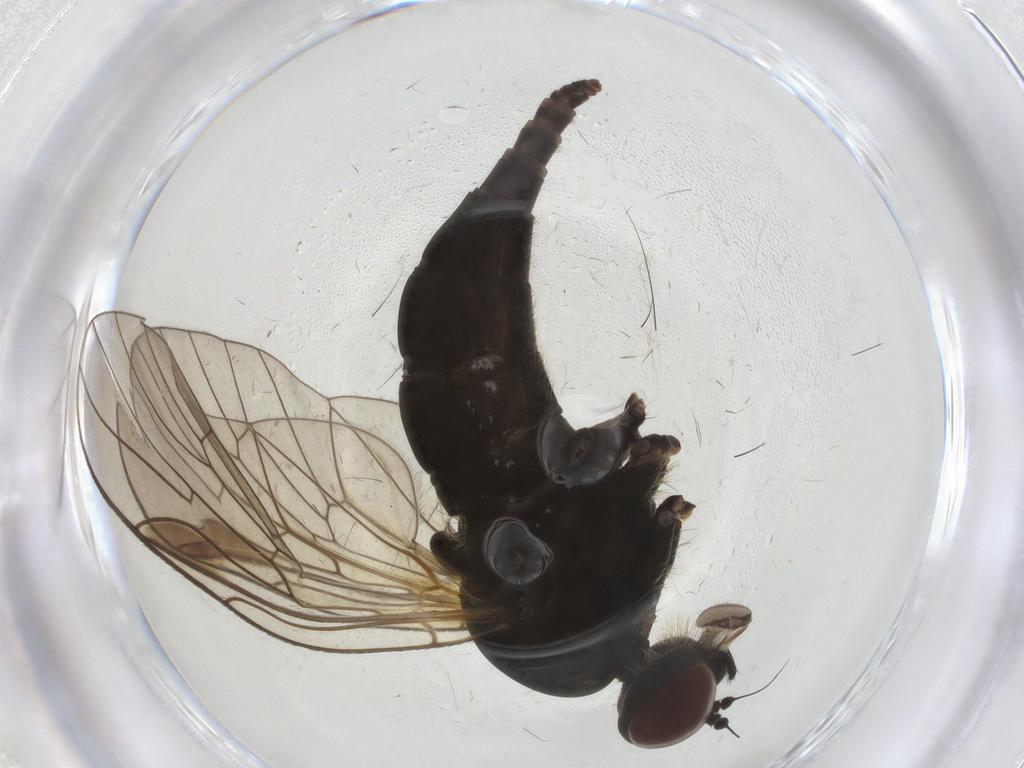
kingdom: Animalia
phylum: Arthropoda
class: Insecta
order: Diptera
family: Rhagionidae
